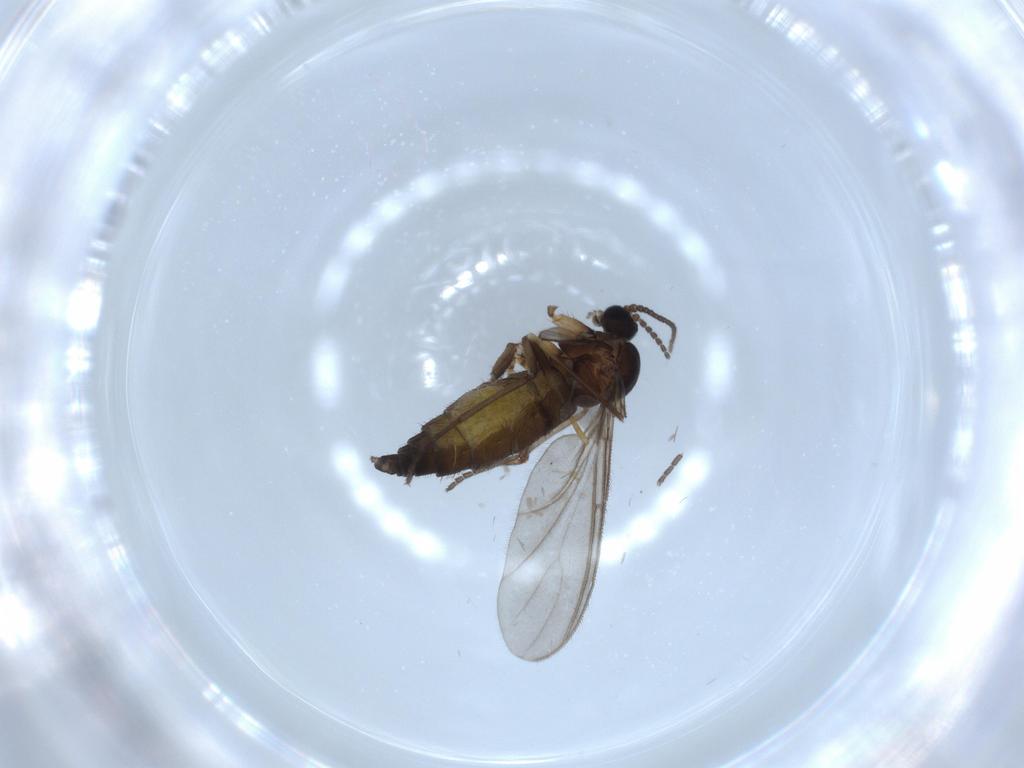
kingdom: Animalia
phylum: Arthropoda
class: Insecta
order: Diptera
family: Sciaridae
